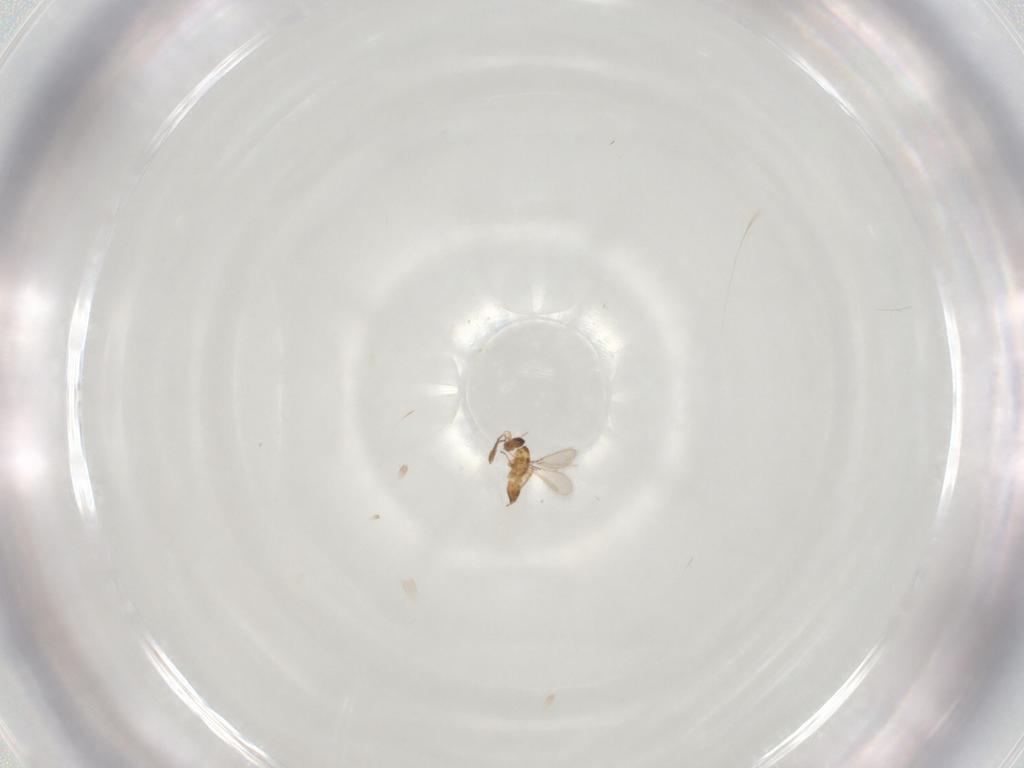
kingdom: Animalia
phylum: Arthropoda
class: Insecta
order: Hymenoptera
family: Mymaridae
